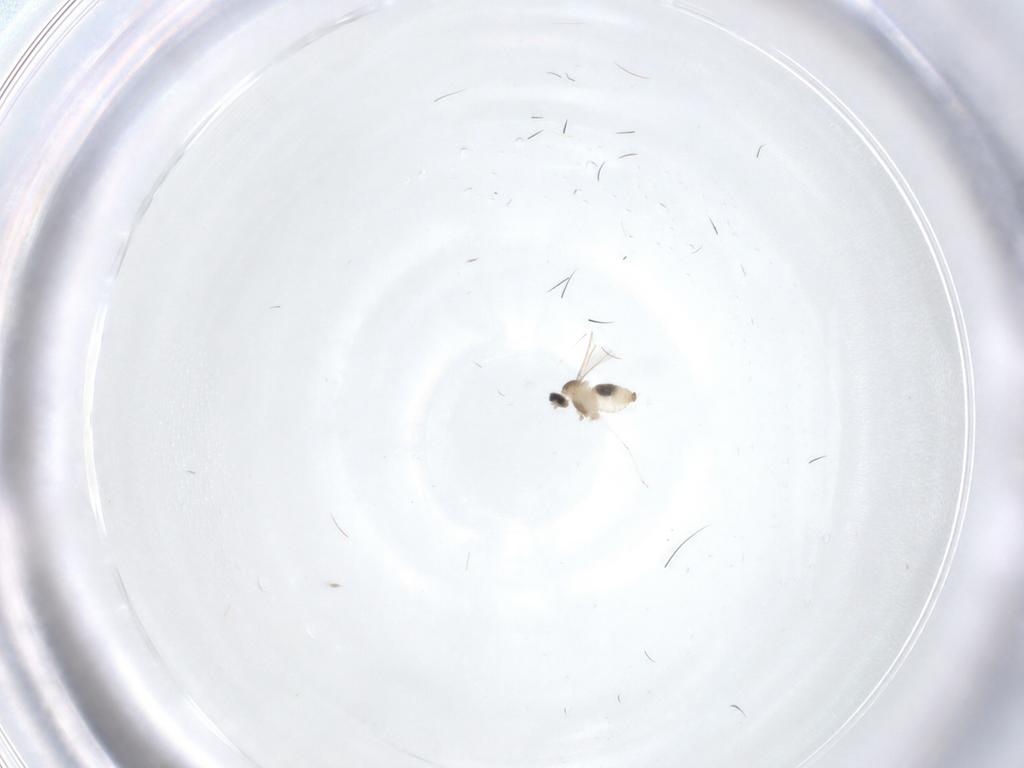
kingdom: Animalia
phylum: Arthropoda
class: Insecta
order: Diptera
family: Cecidomyiidae
